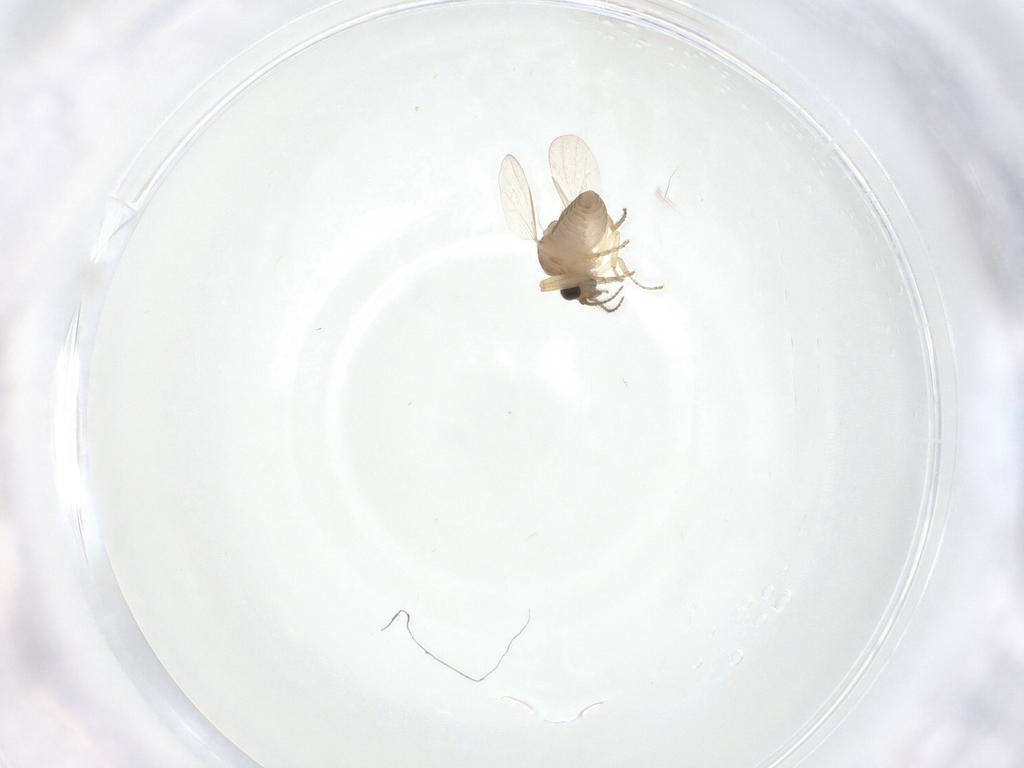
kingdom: Animalia
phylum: Arthropoda
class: Insecta
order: Diptera
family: Ceratopogonidae
